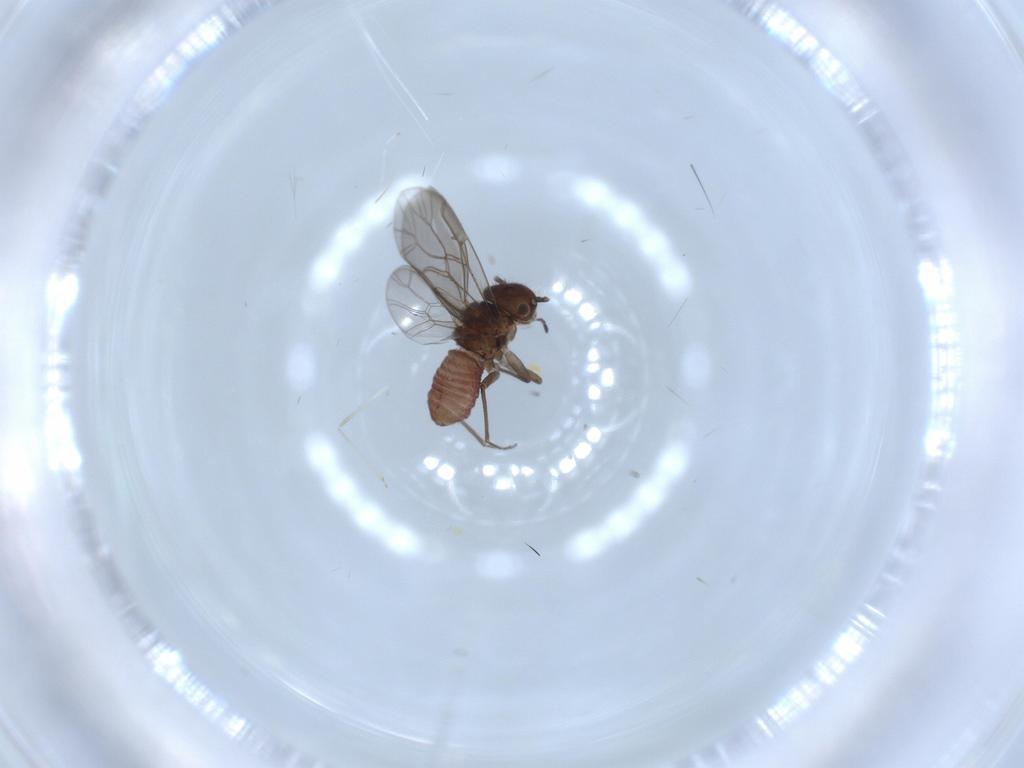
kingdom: Animalia
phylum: Arthropoda
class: Insecta
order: Psocodea
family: Ectopsocidae
